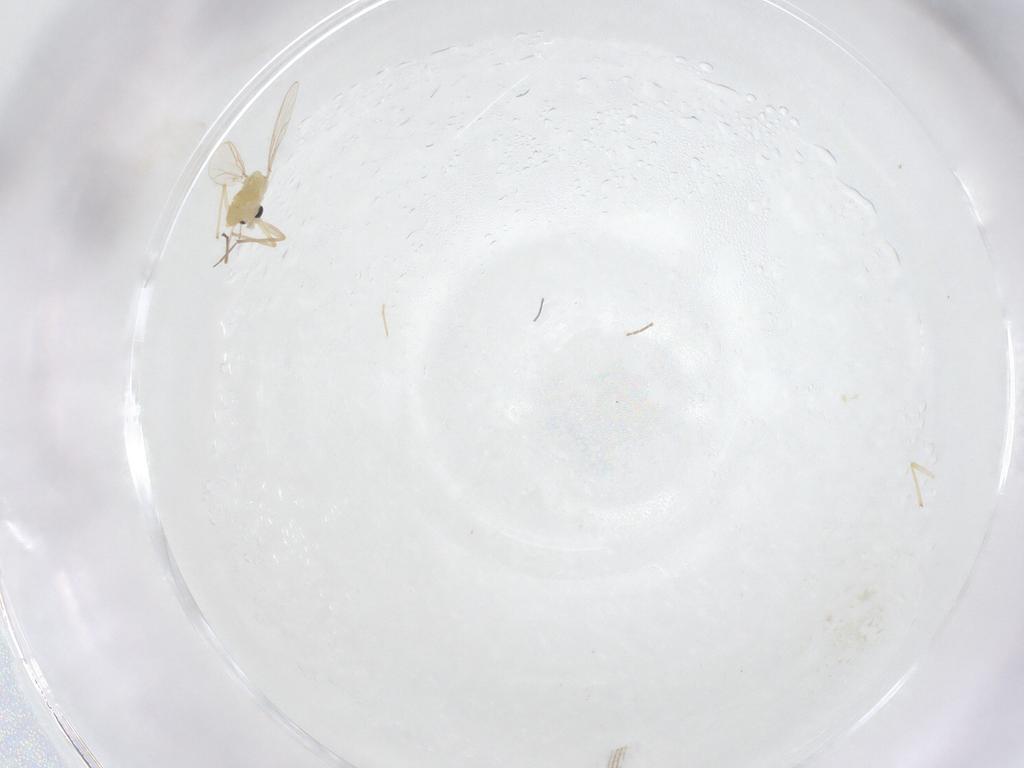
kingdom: Animalia
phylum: Arthropoda
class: Insecta
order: Diptera
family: Chironomidae
